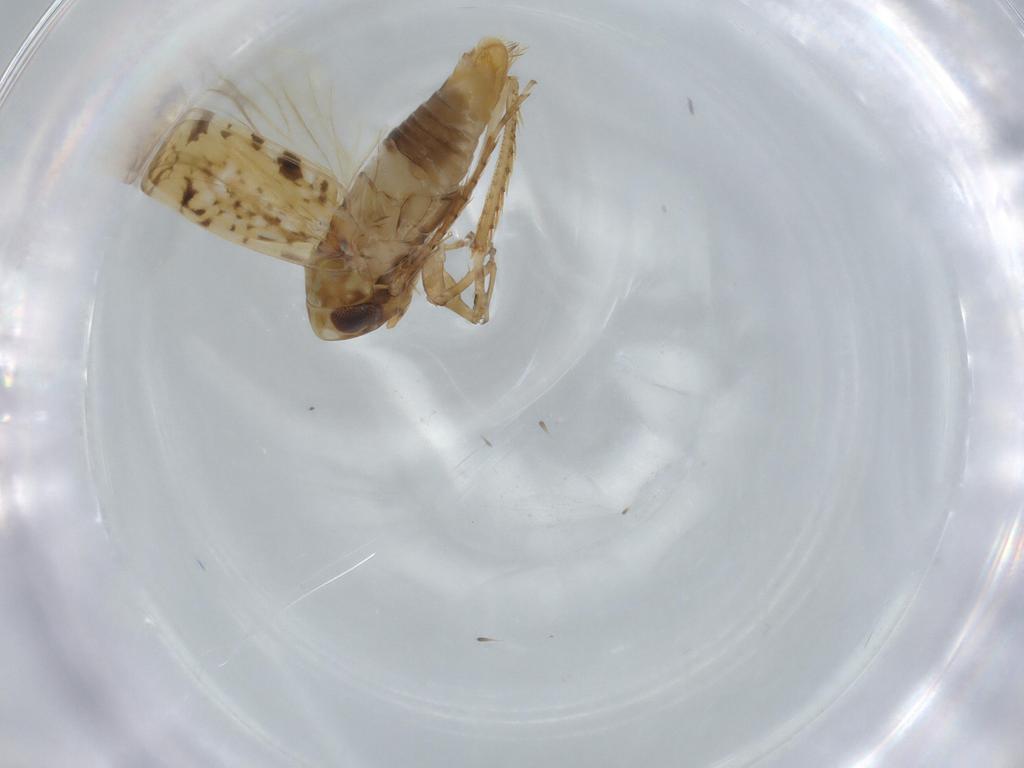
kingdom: Animalia
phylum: Arthropoda
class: Insecta
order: Hemiptera
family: Cicadellidae
